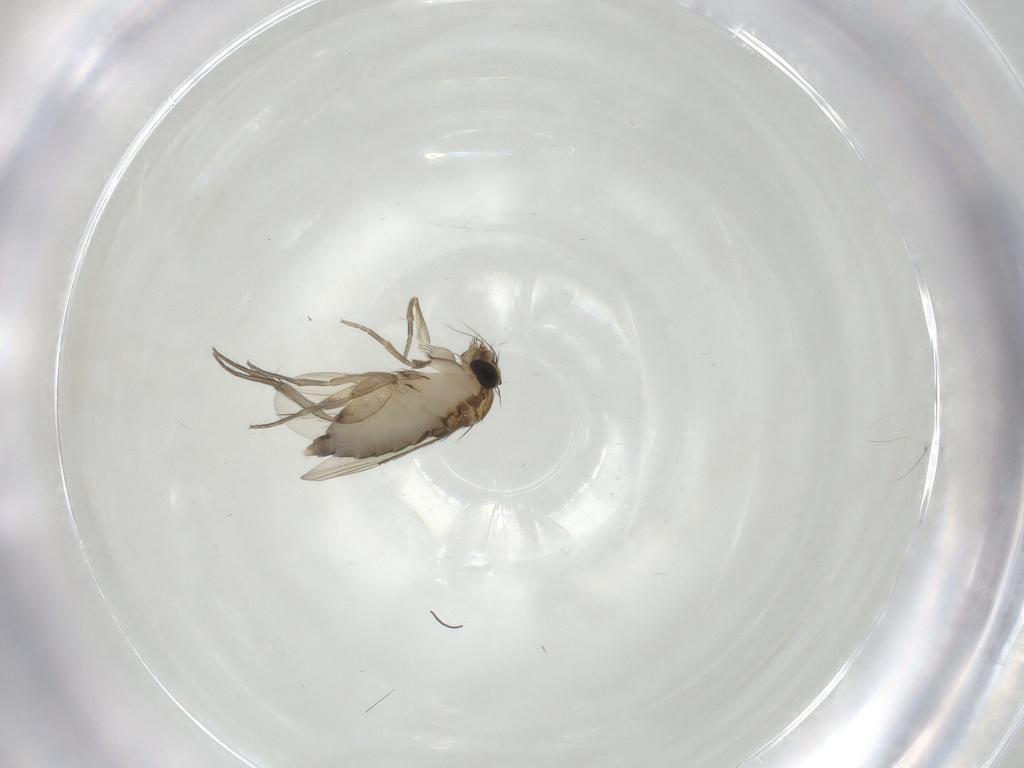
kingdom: Animalia
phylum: Arthropoda
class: Insecta
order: Diptera
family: Phoridae
